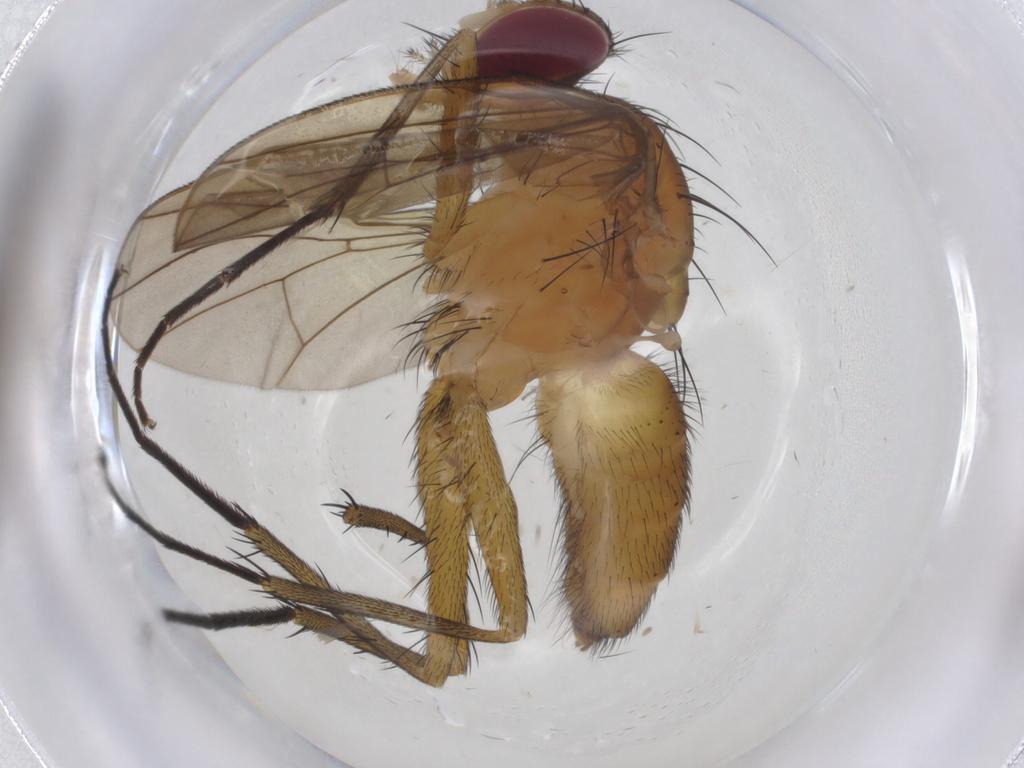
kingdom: Animalia
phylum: Arthropoda
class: Insecta
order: Diptera
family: Calliphoridae
